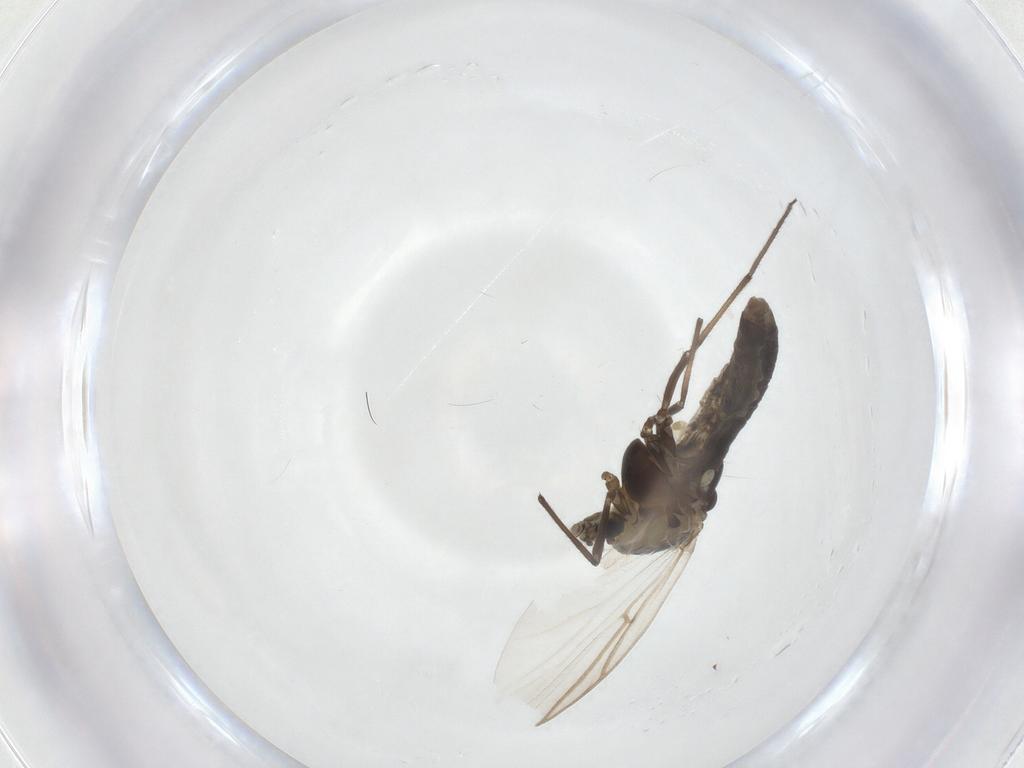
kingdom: Animalia
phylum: Arthropoda
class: Insecta
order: Diptera
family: Chironomidae
